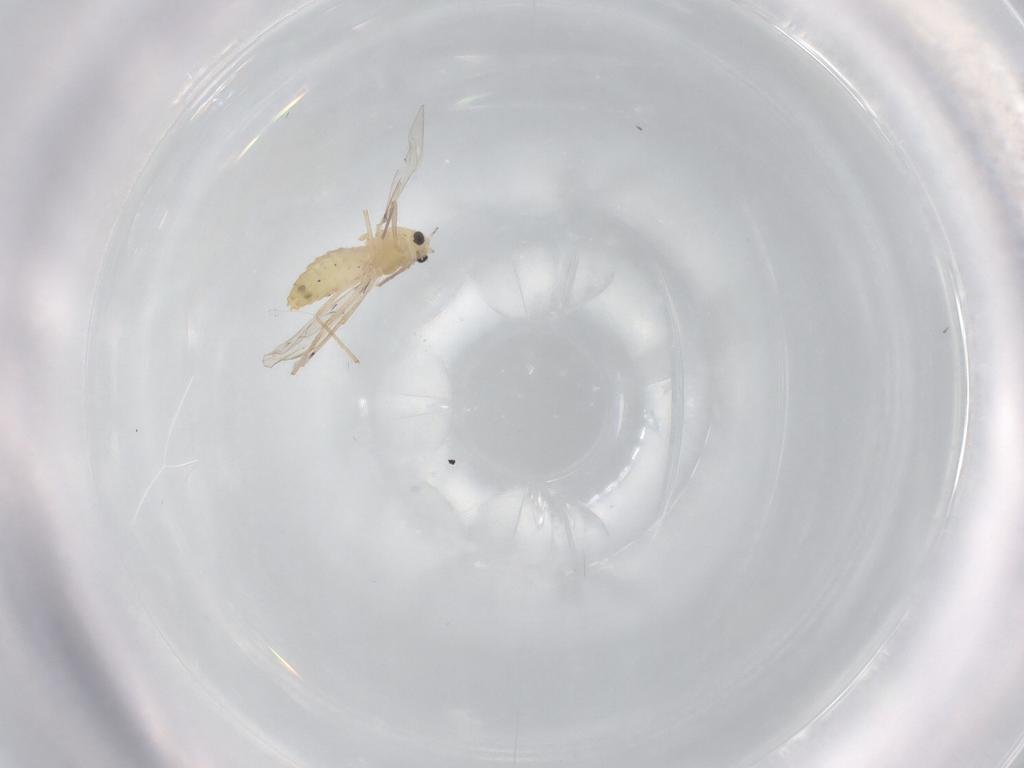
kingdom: Animalia
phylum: Arthropoda
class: Insecta
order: Diptera
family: Chironomidae
